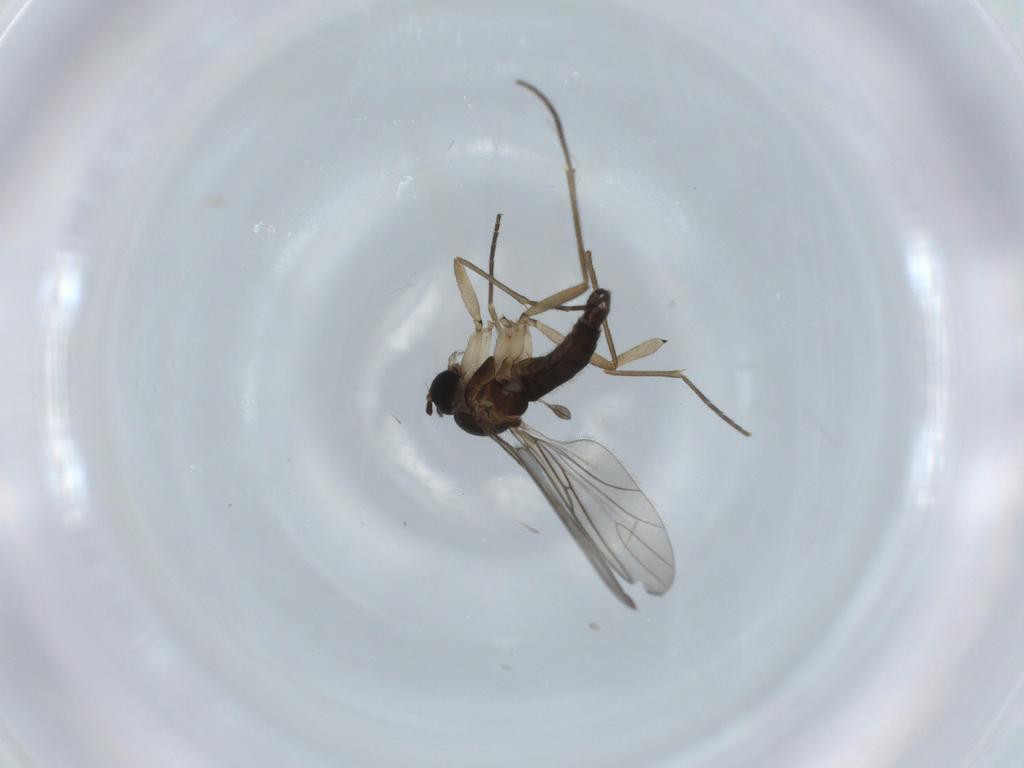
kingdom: Animalia
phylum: Arthropoda
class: Insecta
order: Diptera
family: Sciaridae
